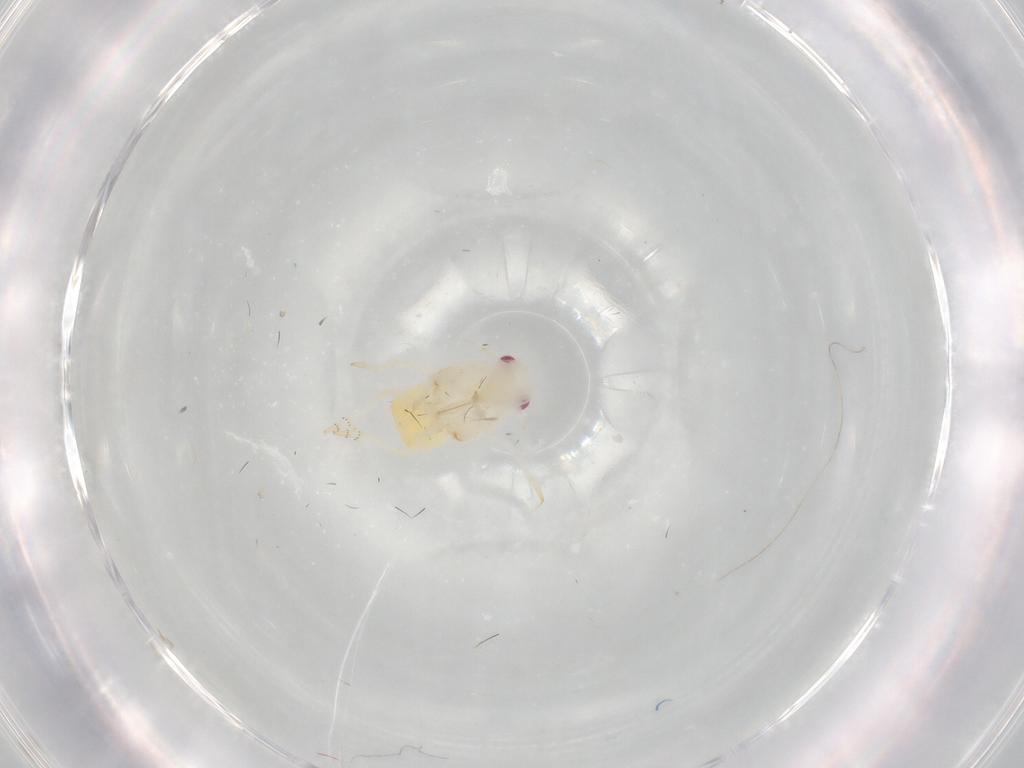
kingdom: Animalia
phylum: Arthropoda
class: Insecta
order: Hemiptera
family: Flatidae
